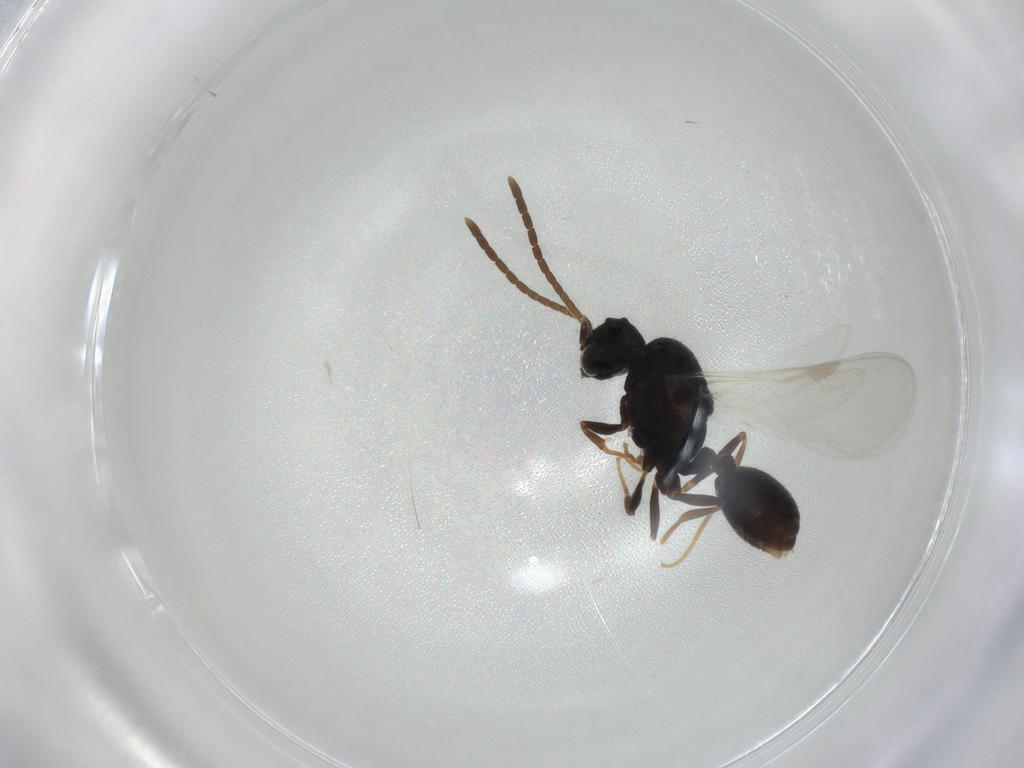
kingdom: Animalia
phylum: Arthropoda
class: Insecta
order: Hymenoptera
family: Formicidae
